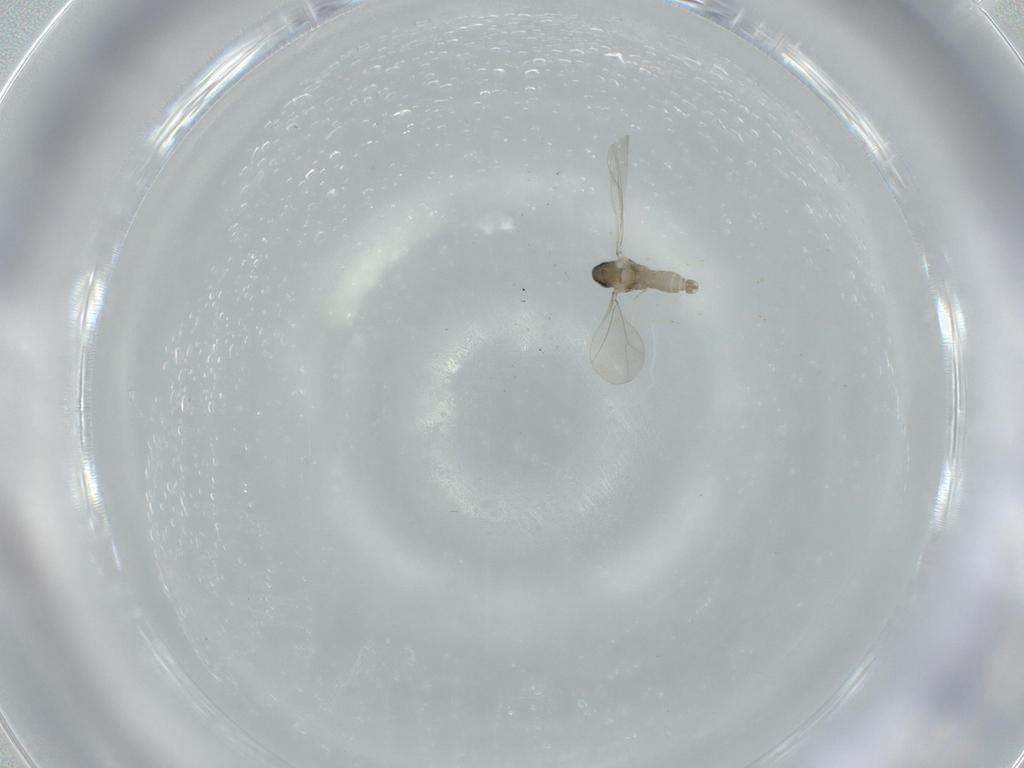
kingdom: Animalia
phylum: Arthropoda
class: Insecta
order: Diptera
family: Cecidomyiidae
